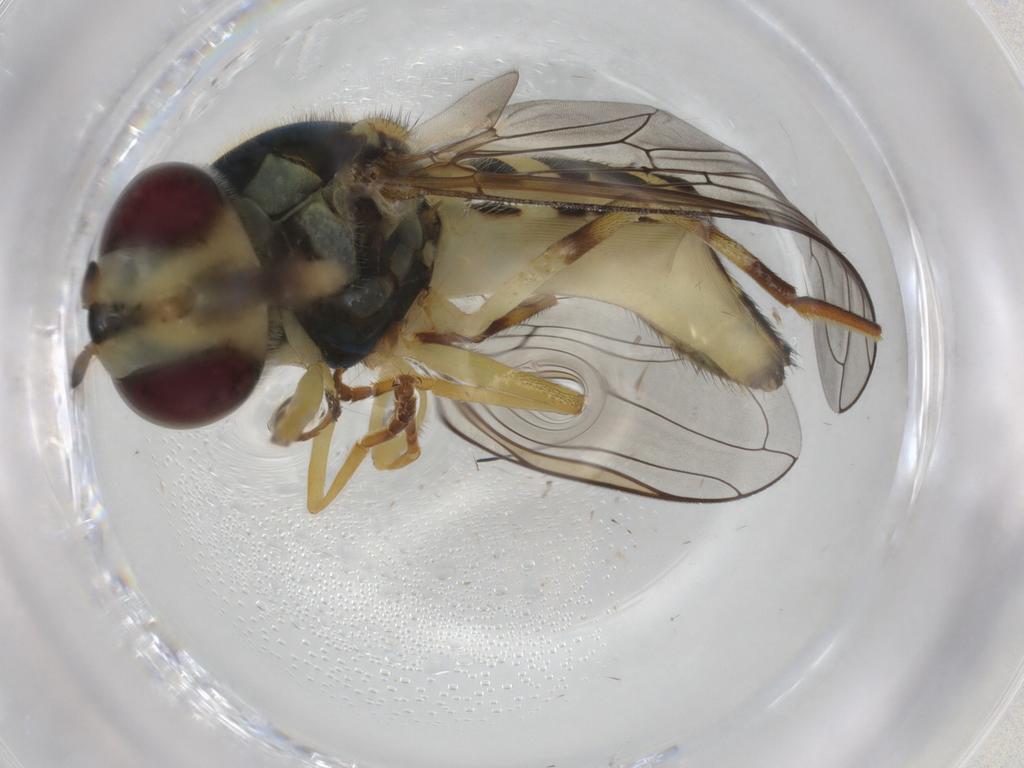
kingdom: Animalia
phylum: Arthropoda
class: Insecta
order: Diptera
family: Syrphidae
